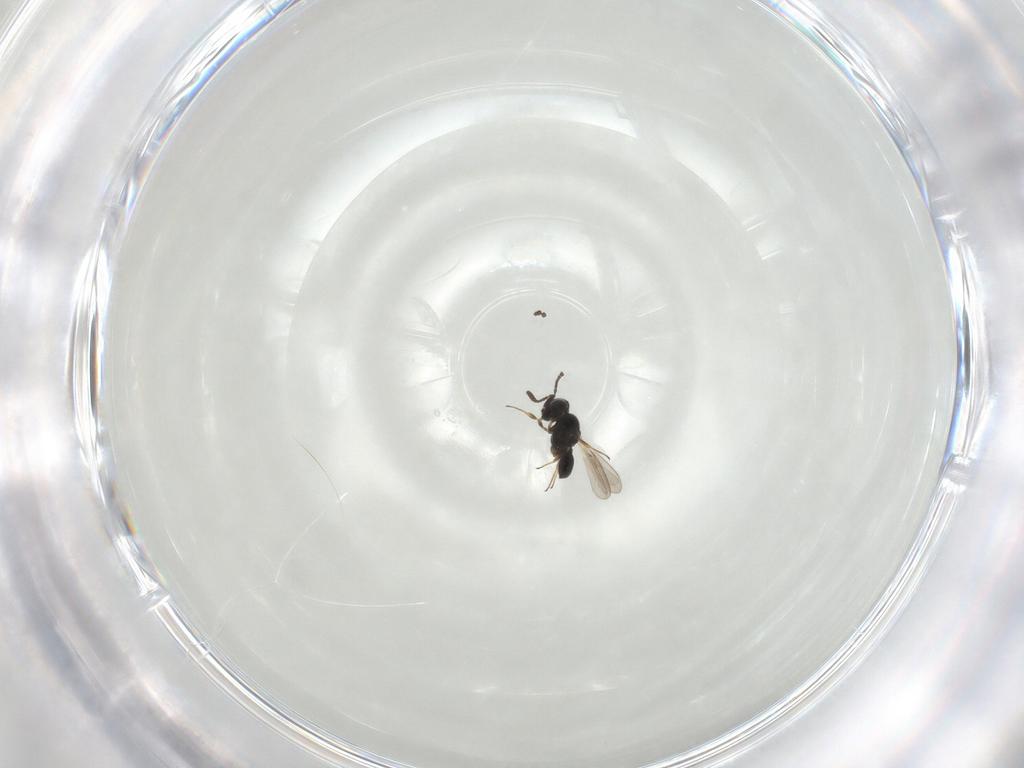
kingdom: Animalia
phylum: Arthropoda
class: Insecta
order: Hymenoptera
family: Scelionidae
